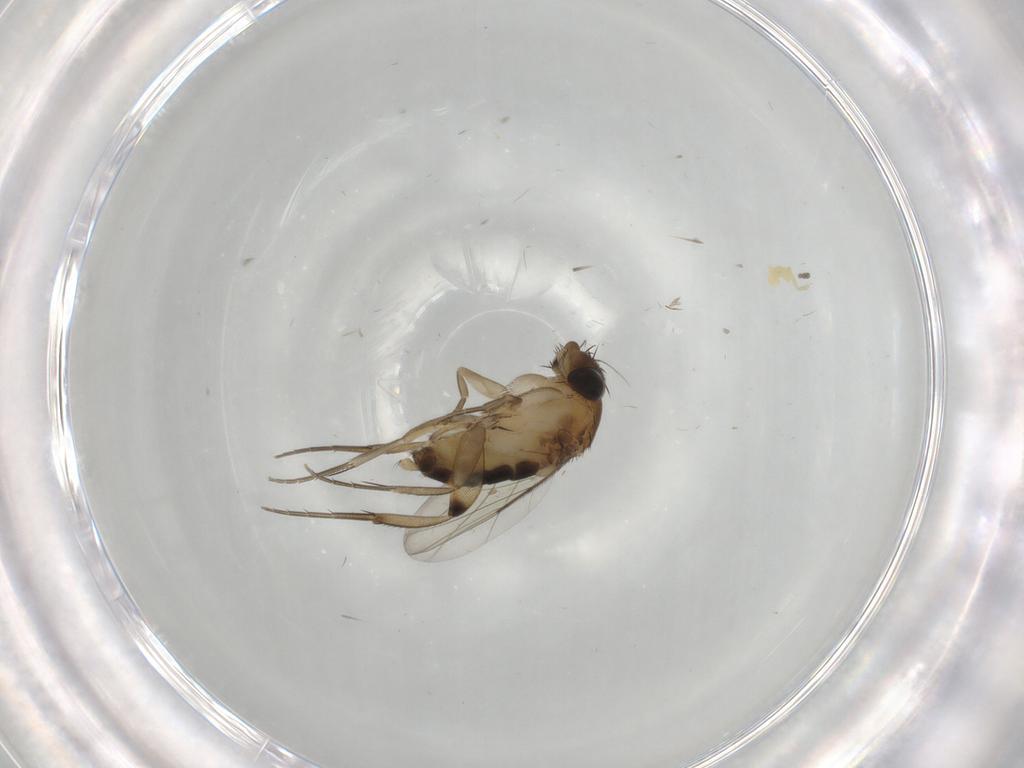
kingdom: Animalia
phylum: Arthropoda
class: Insecta
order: Diptera
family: Phoridae
